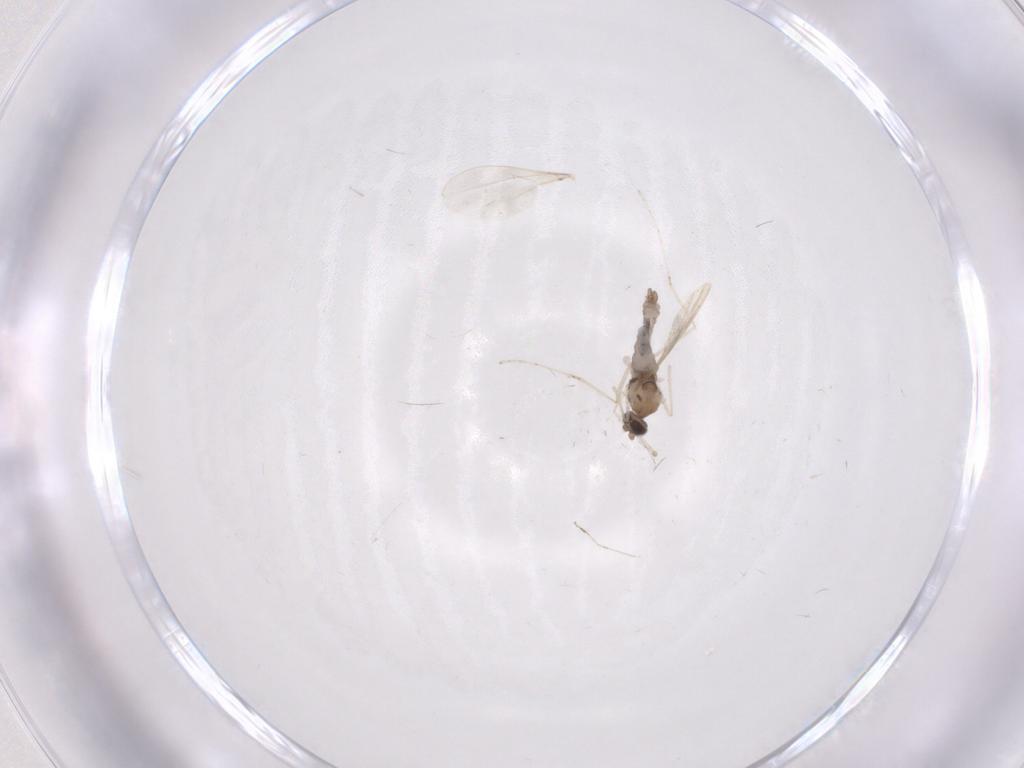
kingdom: Animalia
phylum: Arthropoda
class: Insecta
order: Diptera
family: Cecidomyiidae
